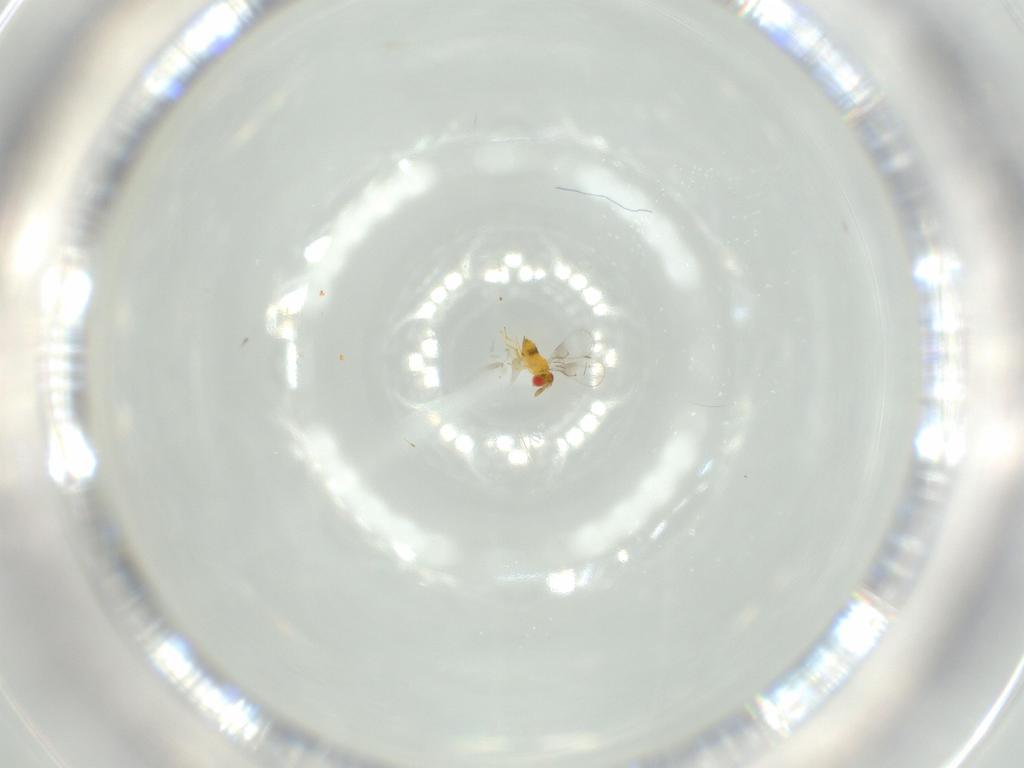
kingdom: Animalia
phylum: Arthropoda
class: Insecta
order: Hymenoptera
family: Trichogrammatidae
